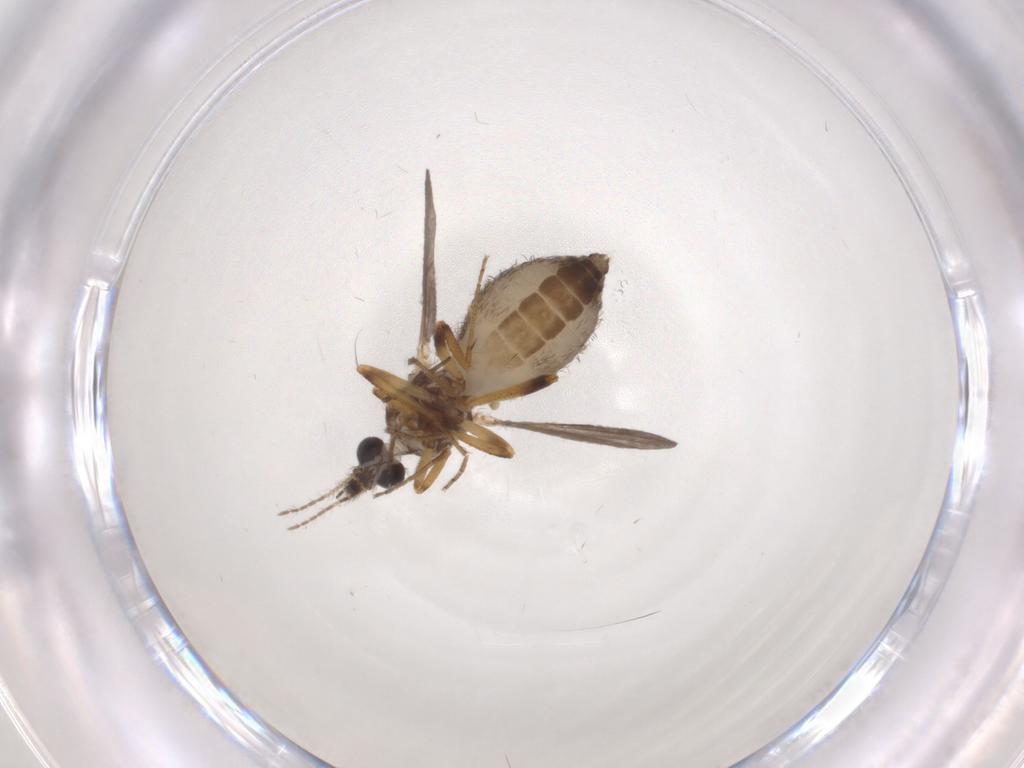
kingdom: Animalia
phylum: Arthropoda
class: Insecta
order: Diptera
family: Ceratopogonidae
